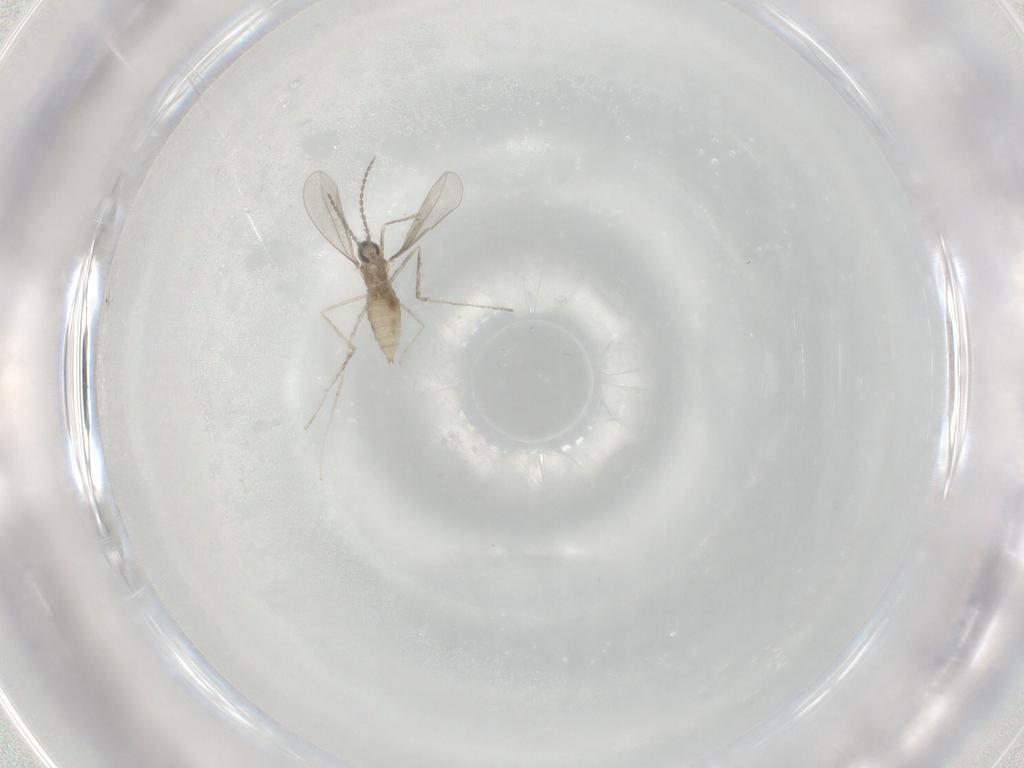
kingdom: Animalia
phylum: Arthropoda
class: Insecta
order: Diptera
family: Cecidomyiidae
